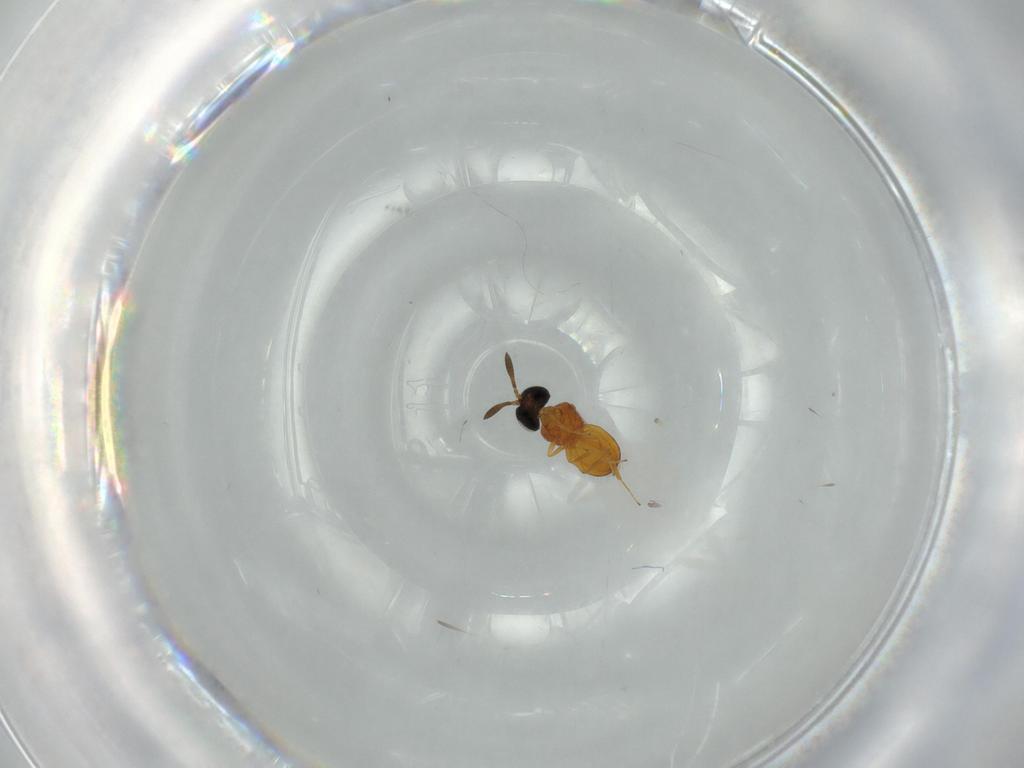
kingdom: Animalia
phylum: Arthropoda
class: Insecta
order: Hymenoptera
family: Scelionidae
